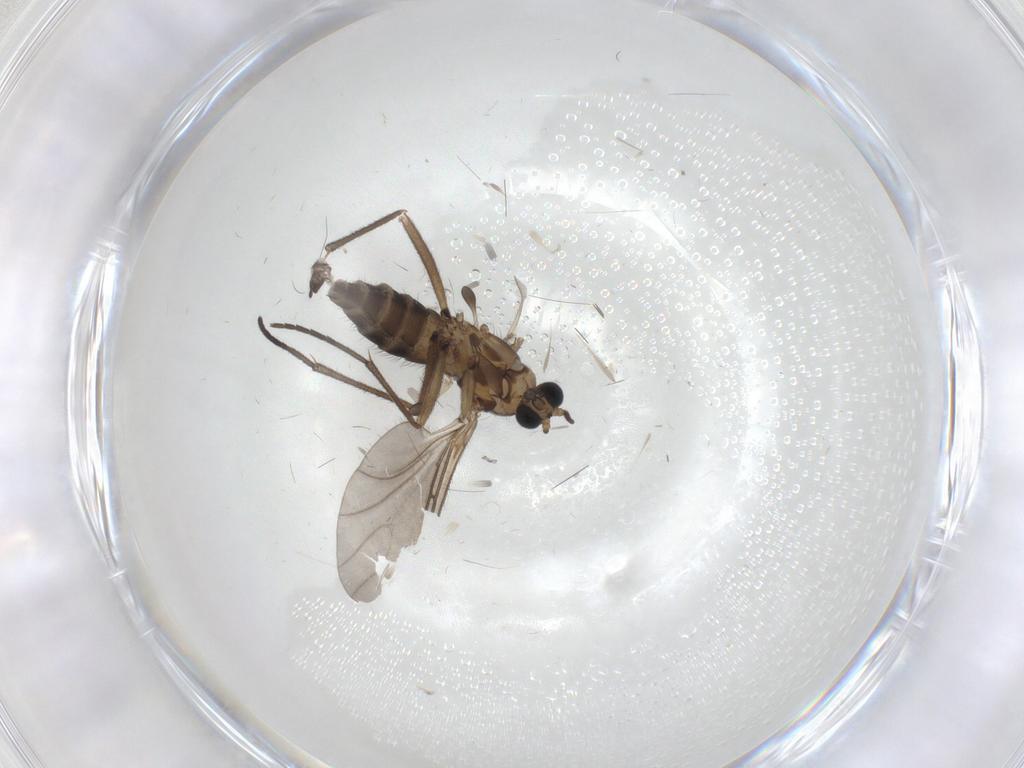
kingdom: Animalia
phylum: Arthropoda
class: Insecta
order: Diptera
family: Sciaridae
